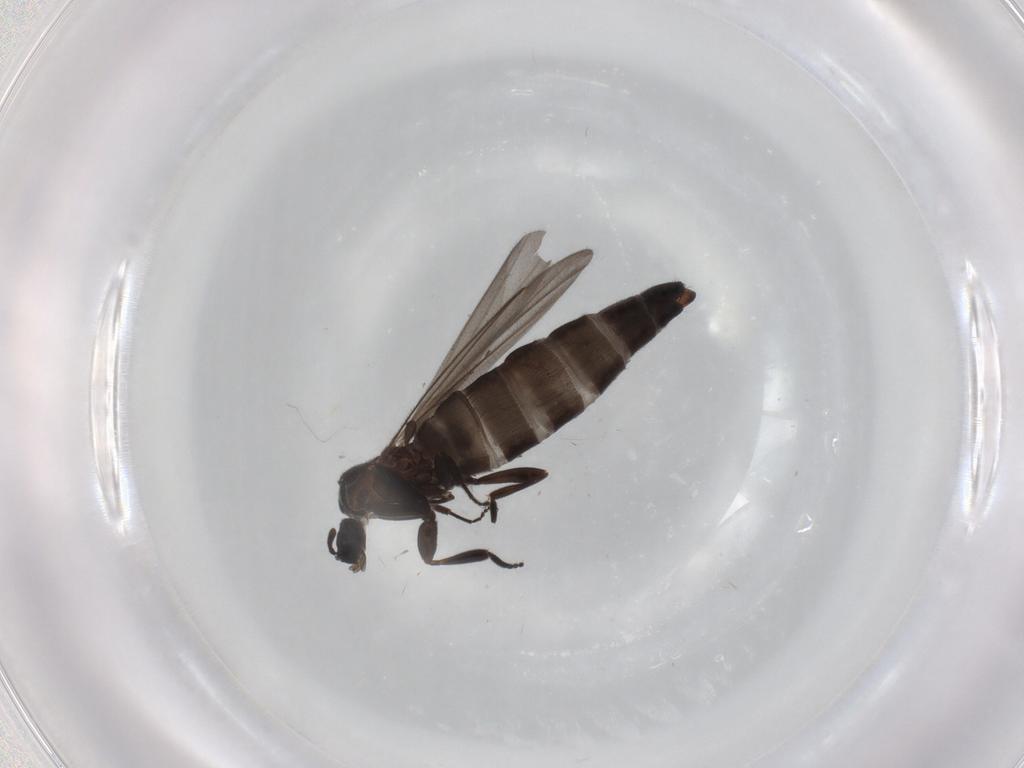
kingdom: Animalia
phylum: Arthropoda
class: Insecta
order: Diptera
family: Scatopsidae
